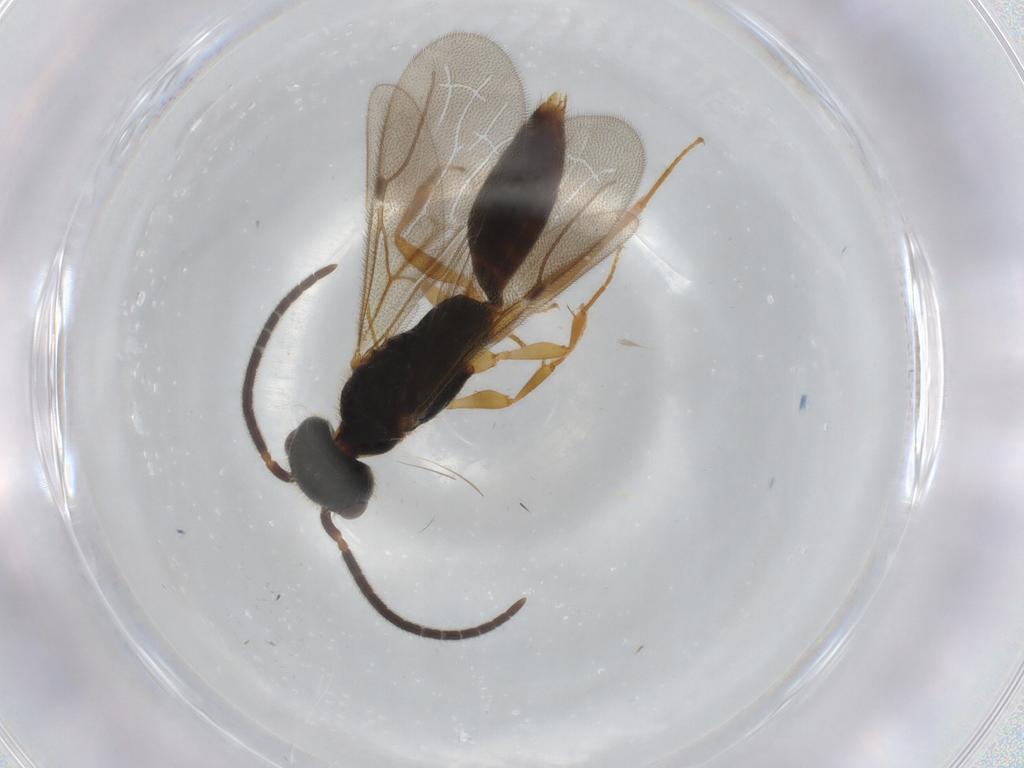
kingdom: Animalia
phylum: Arthropoda
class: Insecta
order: Hymenoptera
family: Bethylidae
